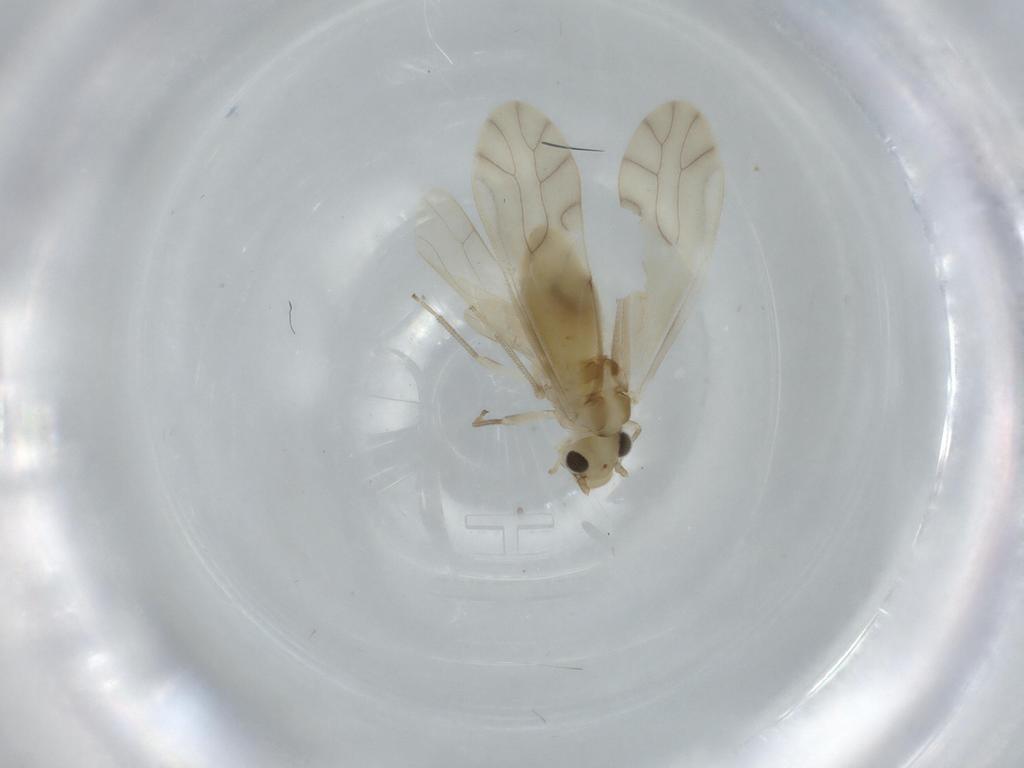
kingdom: Animalia
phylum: Arthropoda
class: Insecta
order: Psocodea
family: Caeciliusidae
